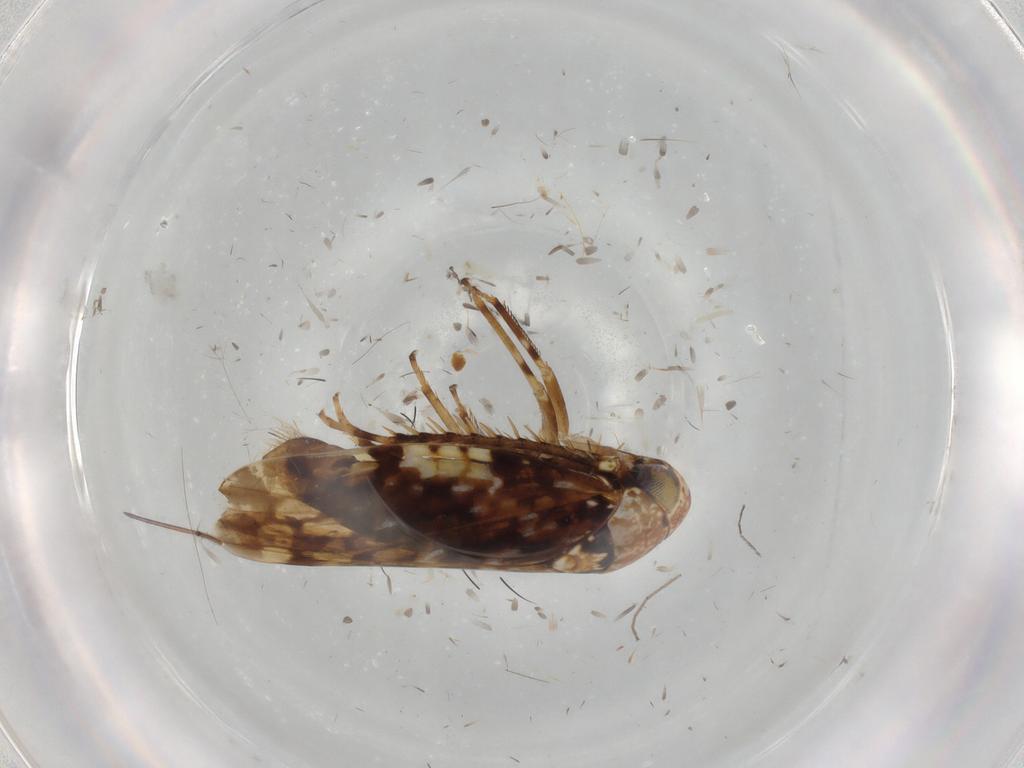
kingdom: Animalia
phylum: Arthropoda
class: Insecta
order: Hemiptera
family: Cicadellidae
